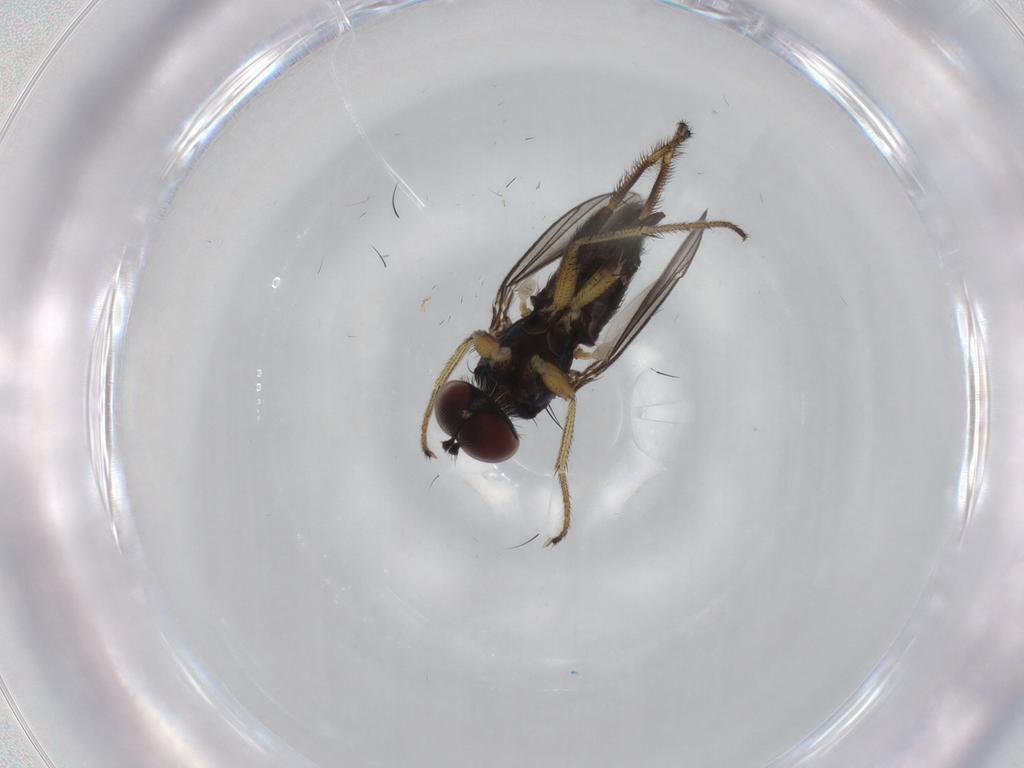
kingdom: Animalia
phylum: Arthropoda
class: Insecta
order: Diptera
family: Dolichopodidae
